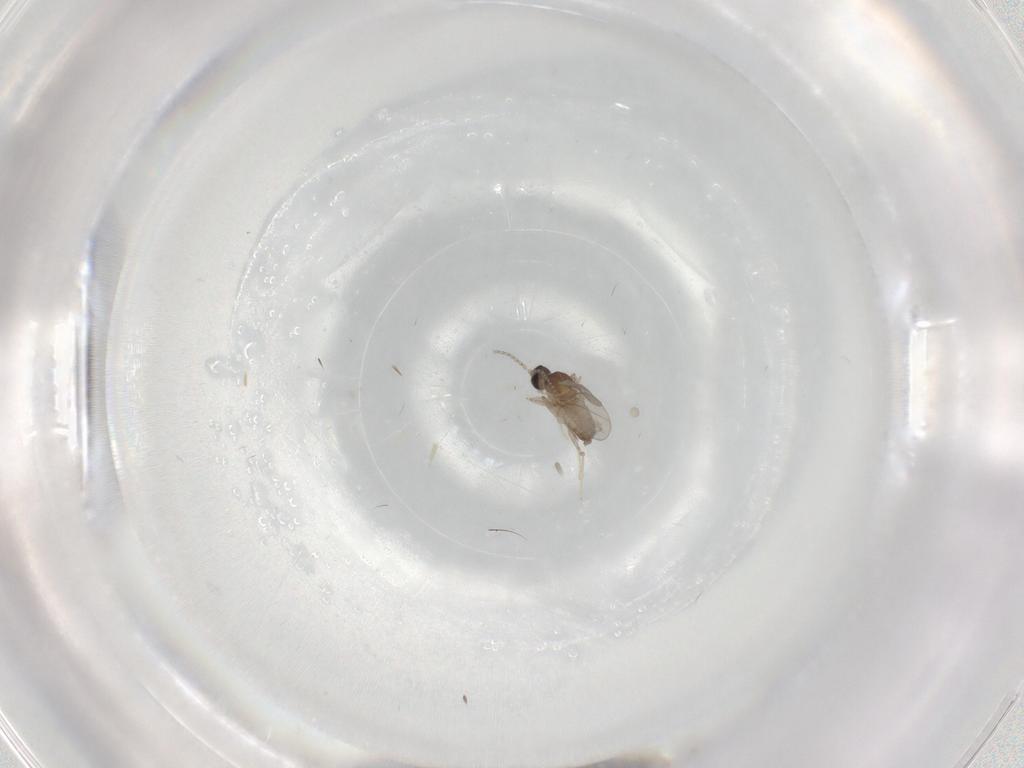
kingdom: Animalia
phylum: Arthropoda
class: Insecta
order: Diptera
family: Cecidomyiidae
